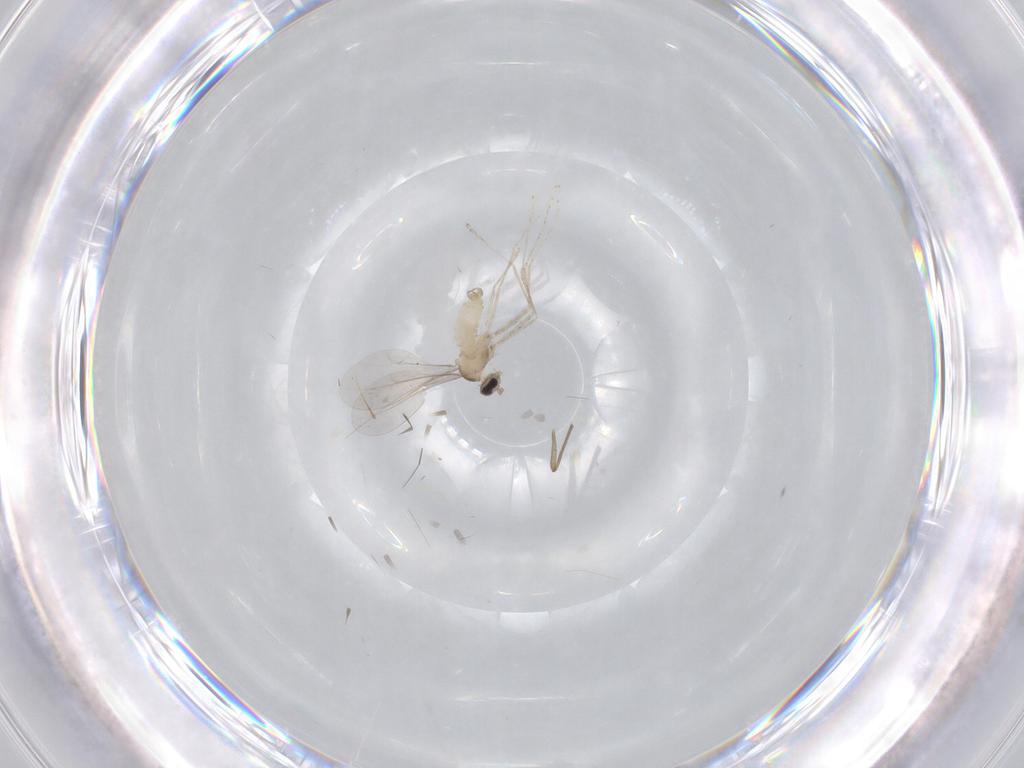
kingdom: Animalia
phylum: Arthropoda
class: Insecta
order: Diptera
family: Cecidomyiidae
